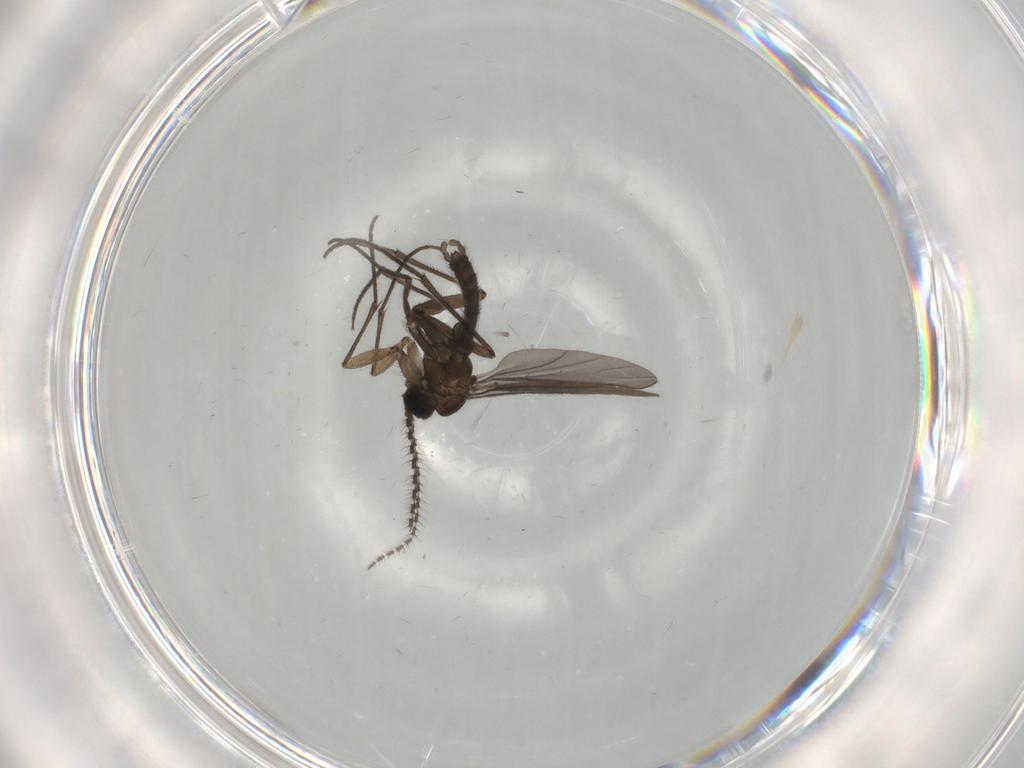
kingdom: Animalia
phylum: Arthropoda
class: Insecta
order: Diptera
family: Sciaridae
